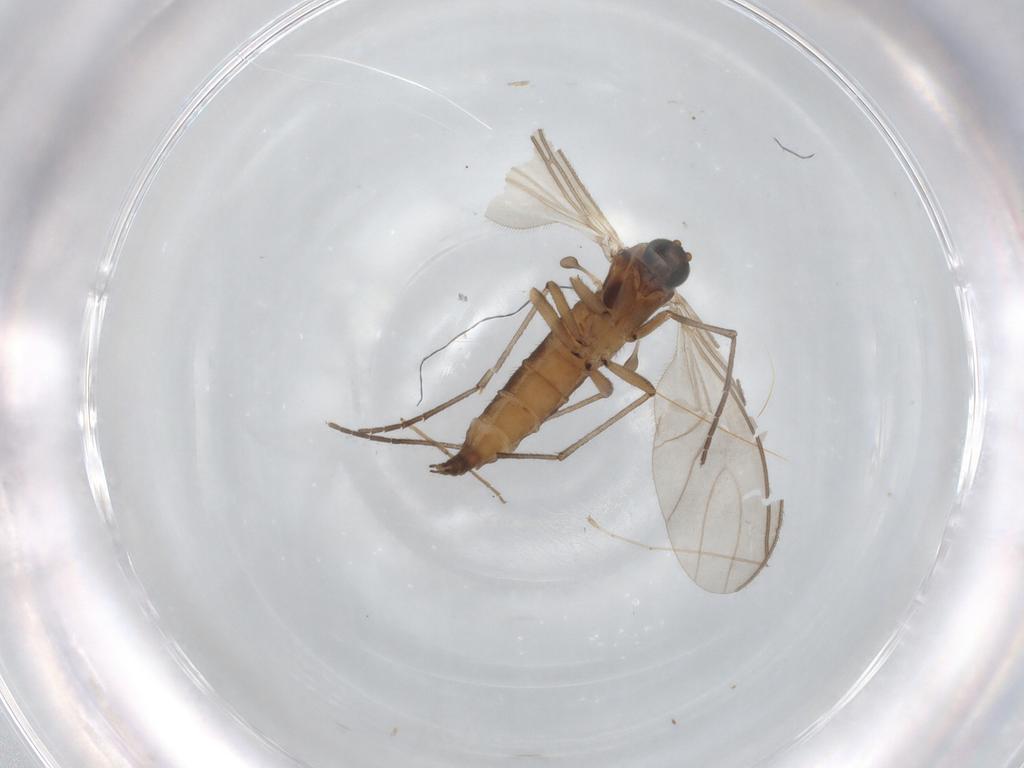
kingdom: Animalia
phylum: Arthropoda
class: Insecta
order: Diptera
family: Sciaridae
